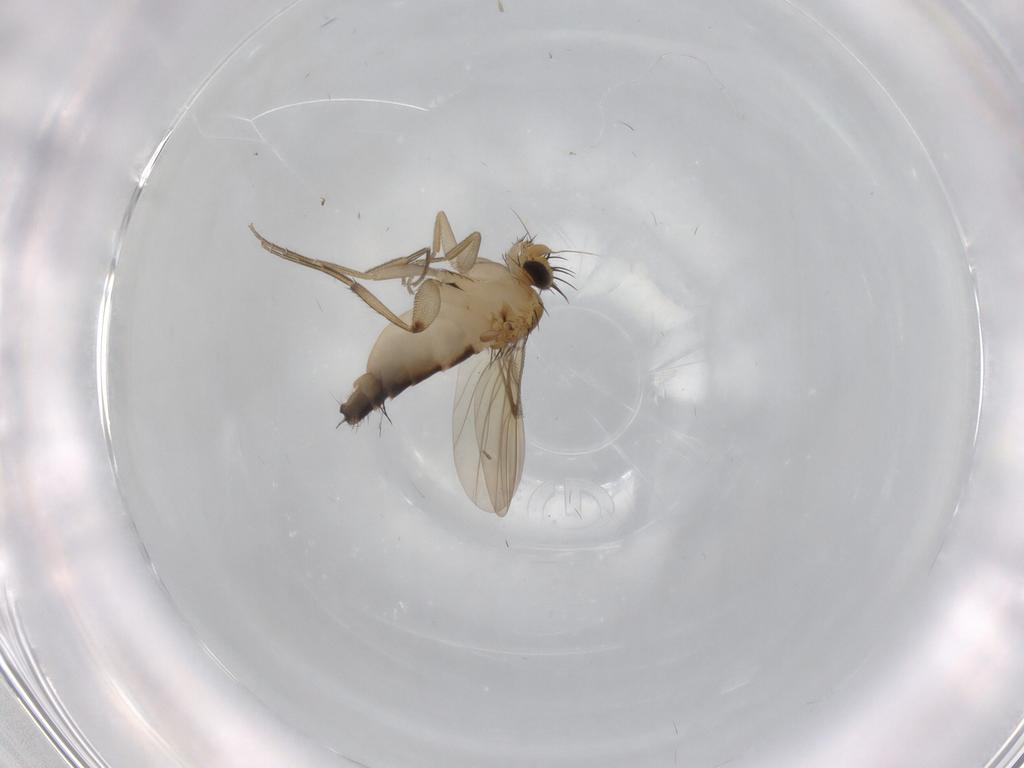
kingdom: Animalia
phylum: Arthropoda
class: Insecta
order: Diptera
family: Cecidomyiidae
